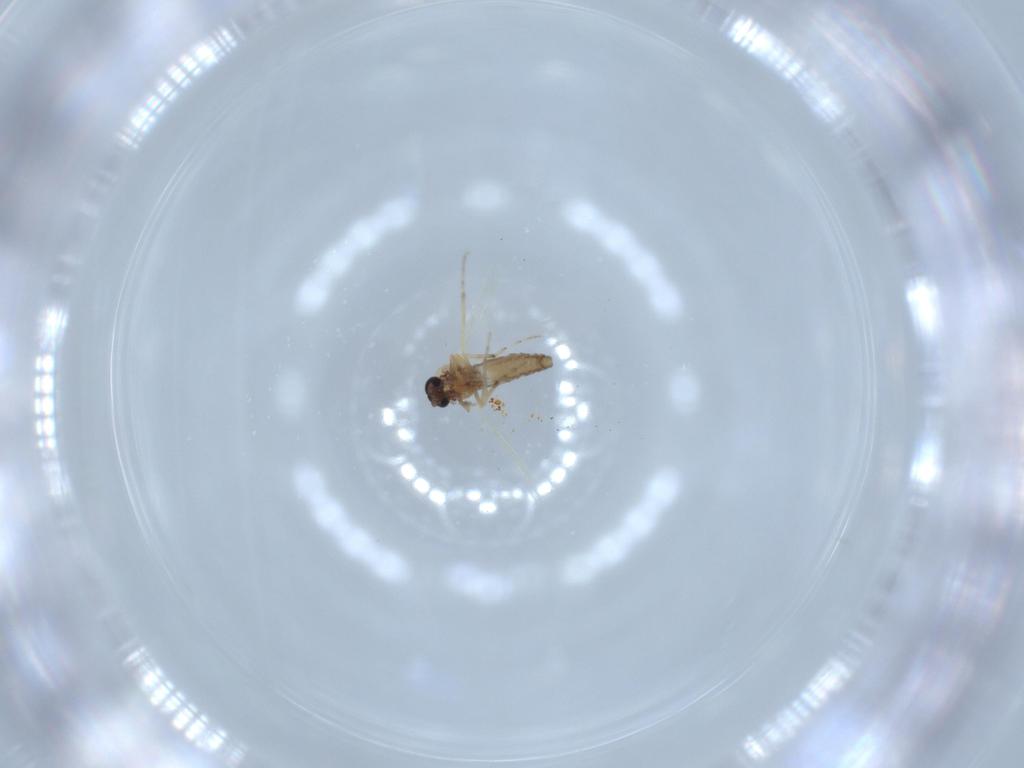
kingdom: Animalia
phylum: Arthropoda
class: Insecta
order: Diptera
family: Ceratopogonidae
